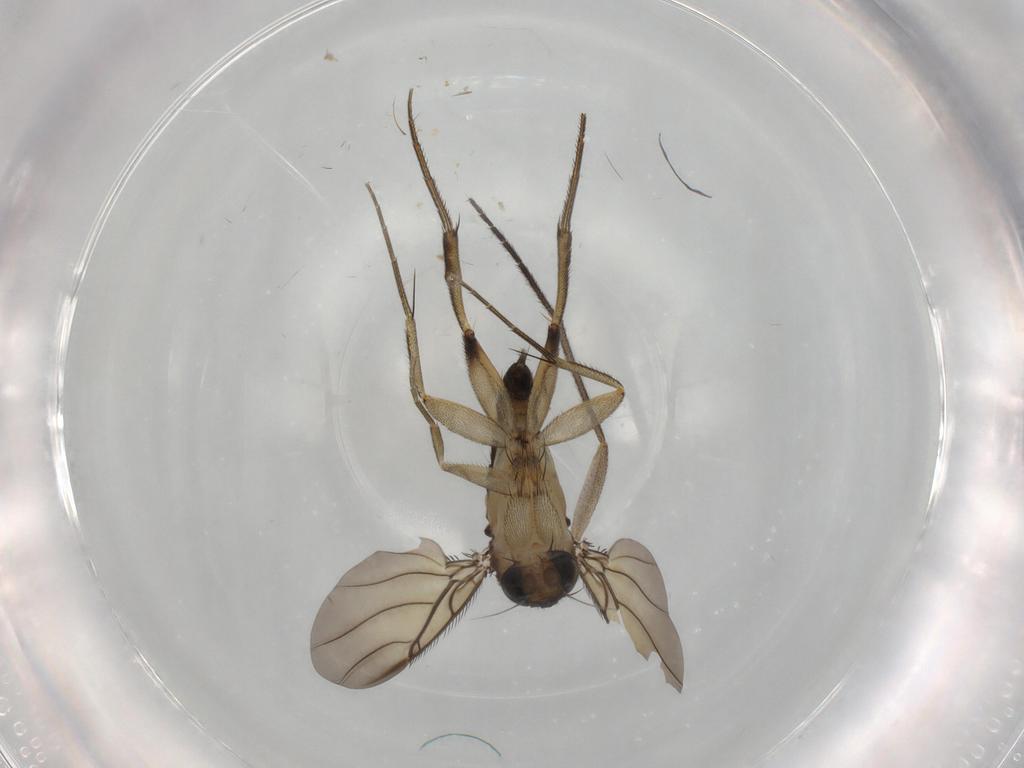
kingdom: Animalia
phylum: Arthropoda
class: Insecta
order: Diptera
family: Sciaridae
